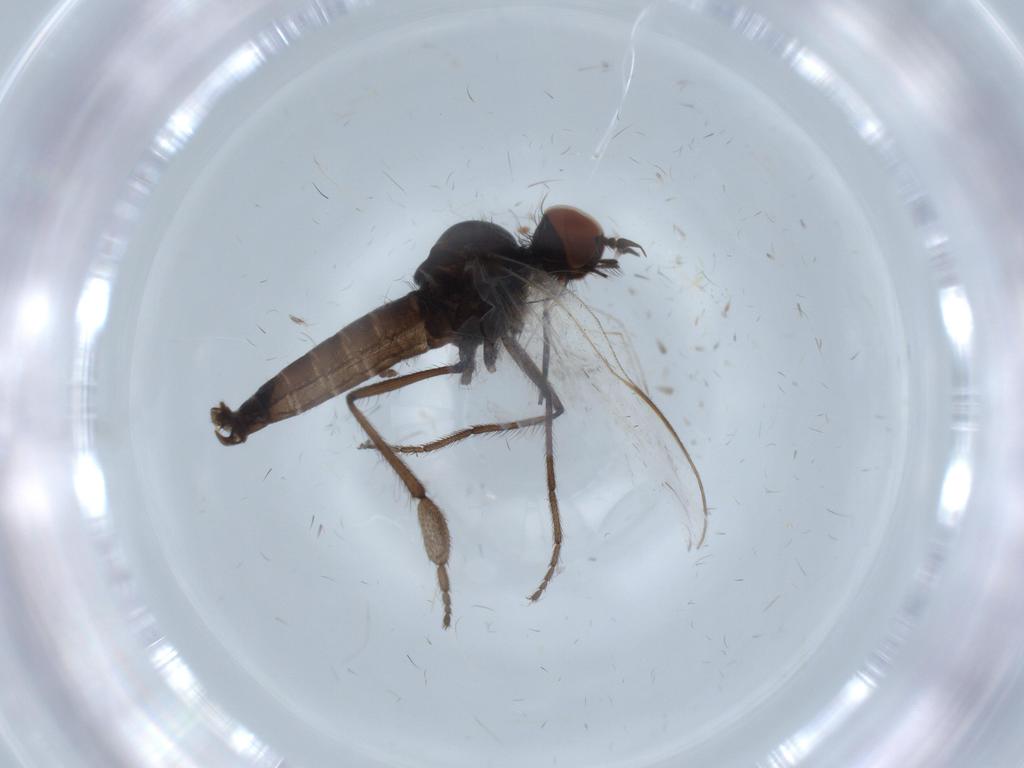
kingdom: Animalia
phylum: Arthropoda
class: Insecta
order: Diptera
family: Empididae
